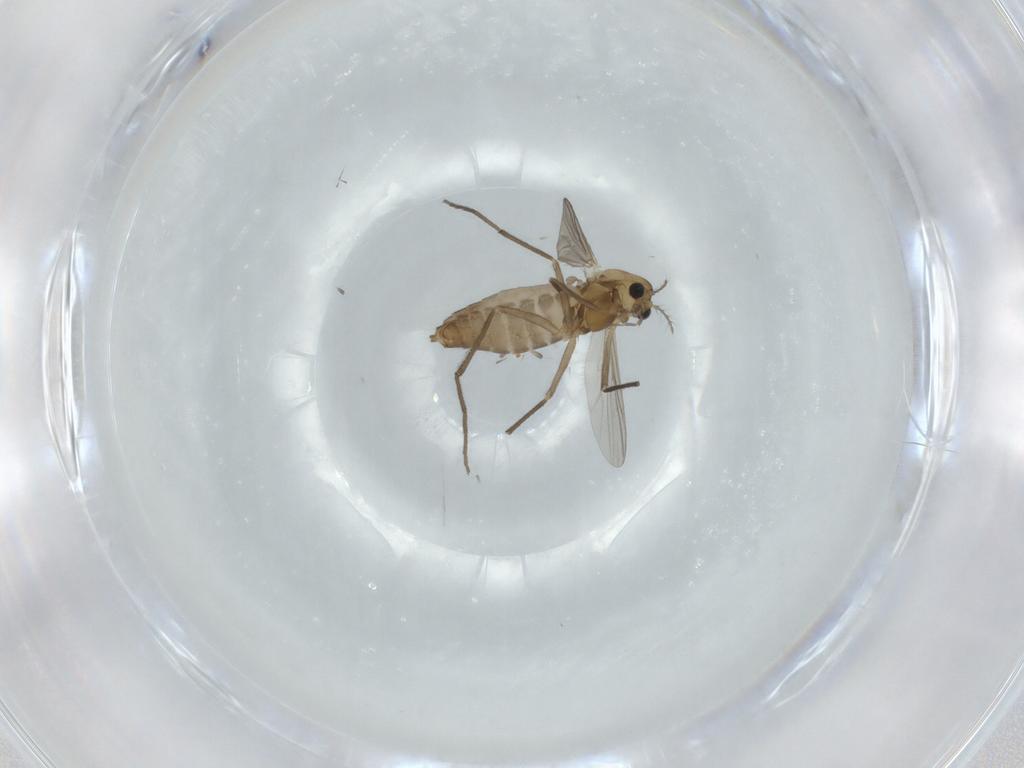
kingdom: Animalia
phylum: Arthropoda
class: Insecta
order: Diptera
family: Chironomidae
